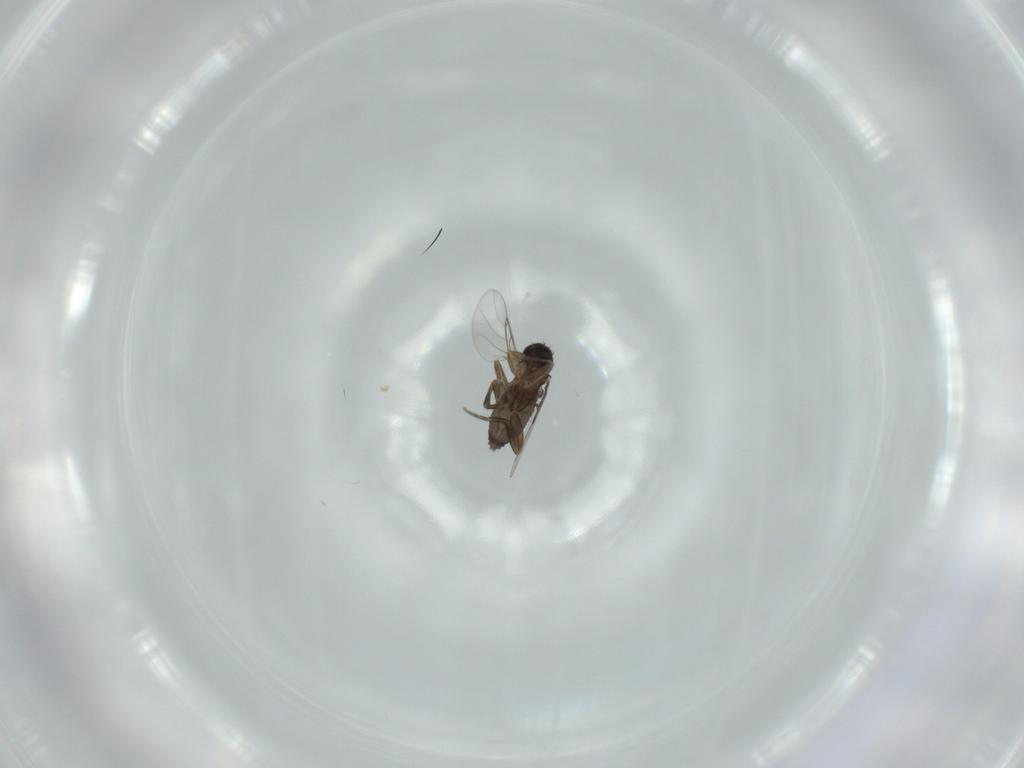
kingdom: Animalia
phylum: Arthropoda
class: Insecta
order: Diptera
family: Phoridae
